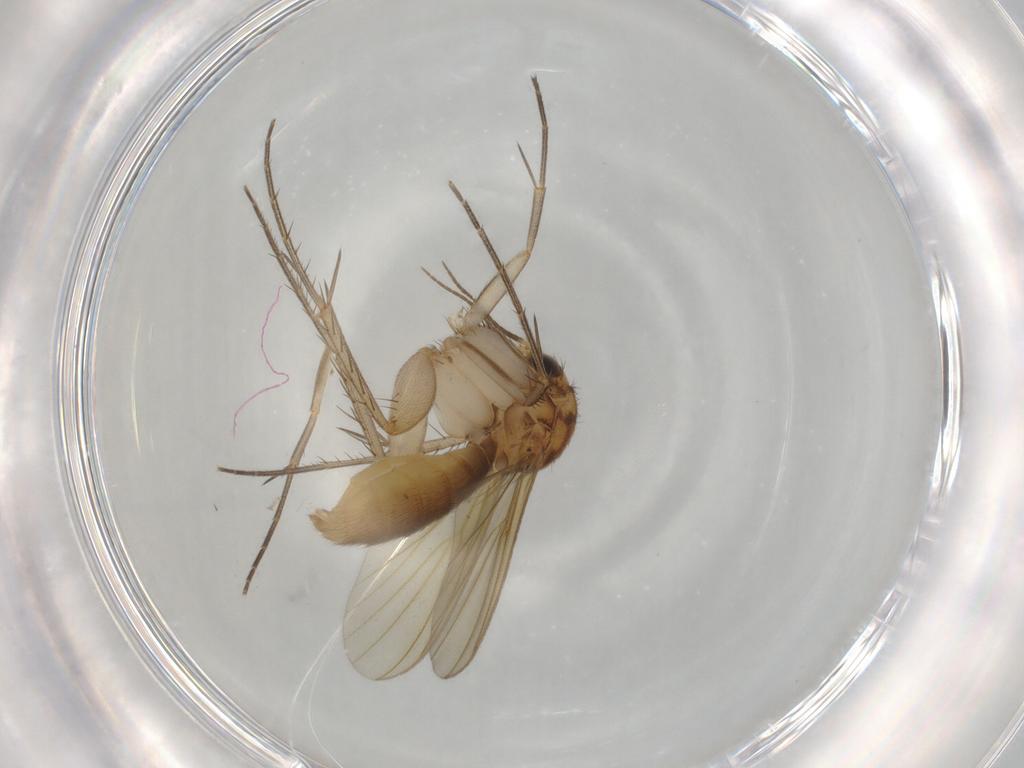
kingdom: Animalia
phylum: Arthropoda
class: Insecta
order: Diptera
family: Mycetophilidae
